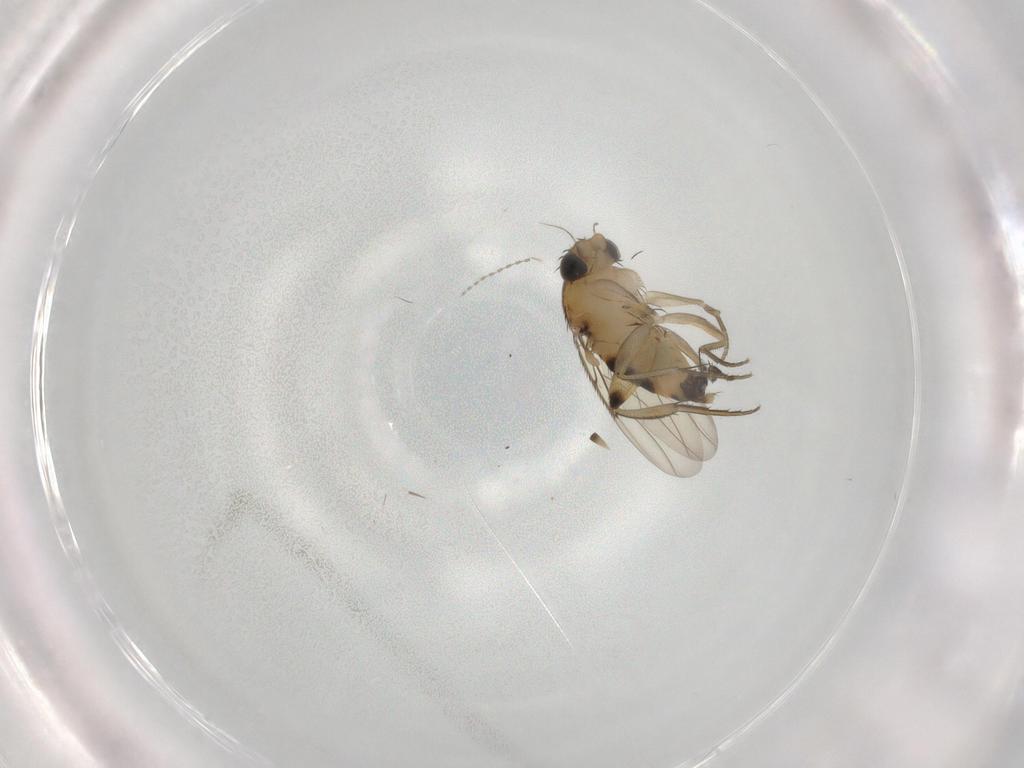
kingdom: Animalia
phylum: Arthropoda
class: Insecta
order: Diptera
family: Phoridae
